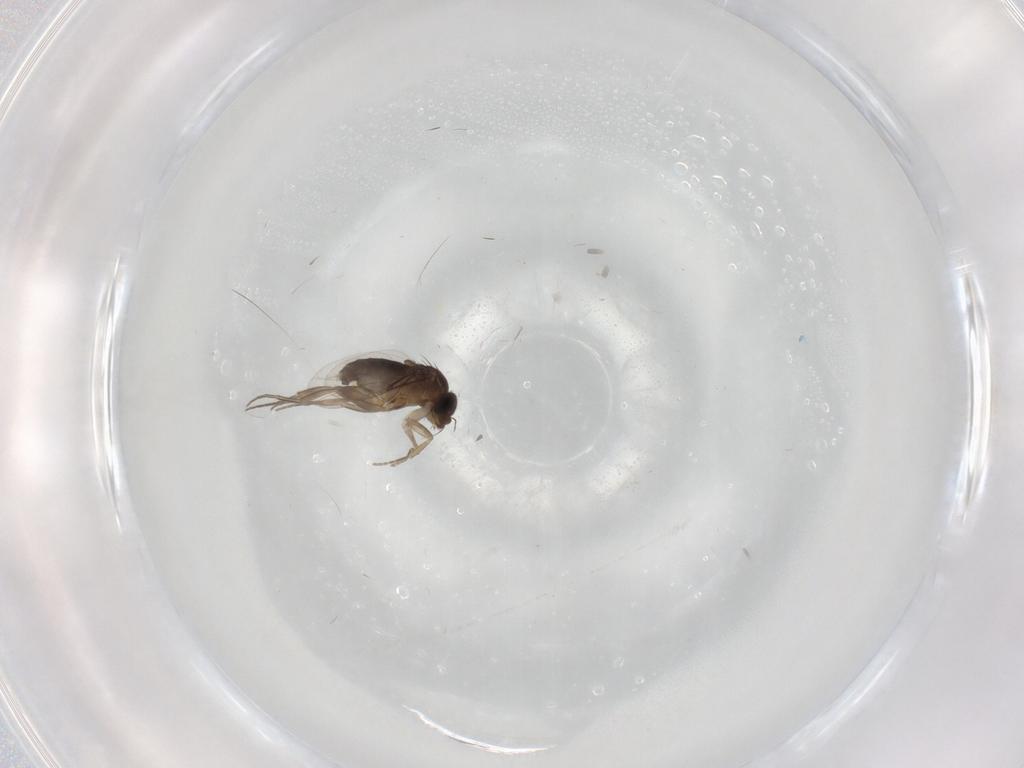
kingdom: Animalia
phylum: Arthropoda
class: Insecta
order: Diptera
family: Phoridae
